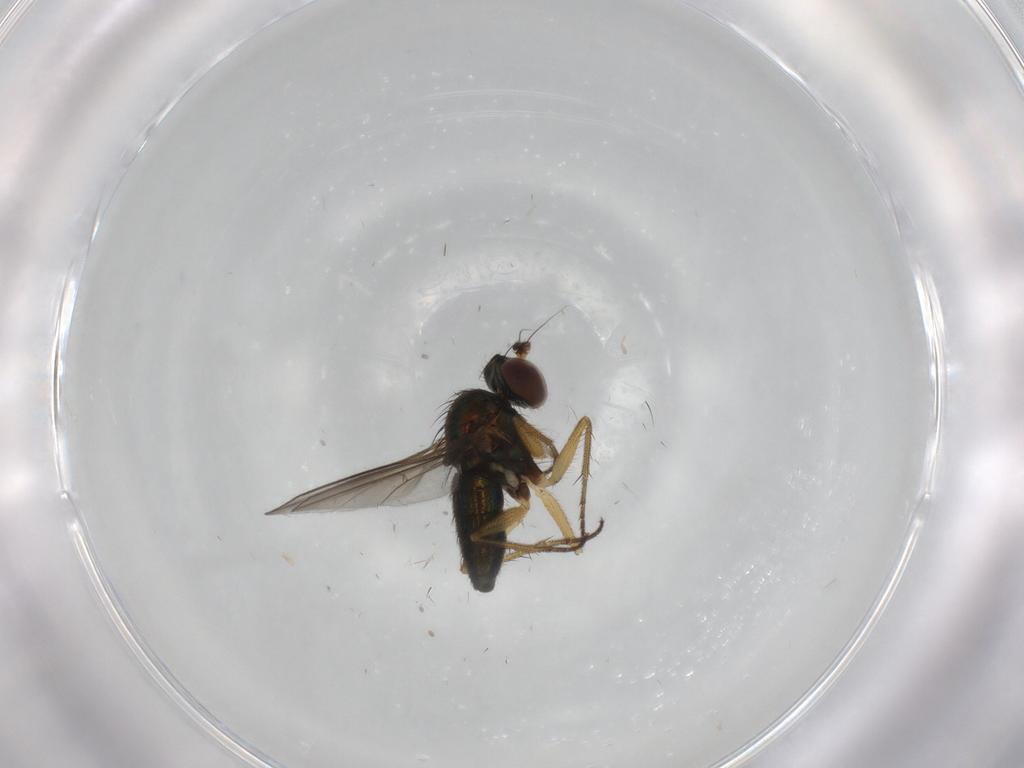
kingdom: Animalia
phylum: Arthropoda
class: Insecta
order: Diptera
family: Dolichopodidae
